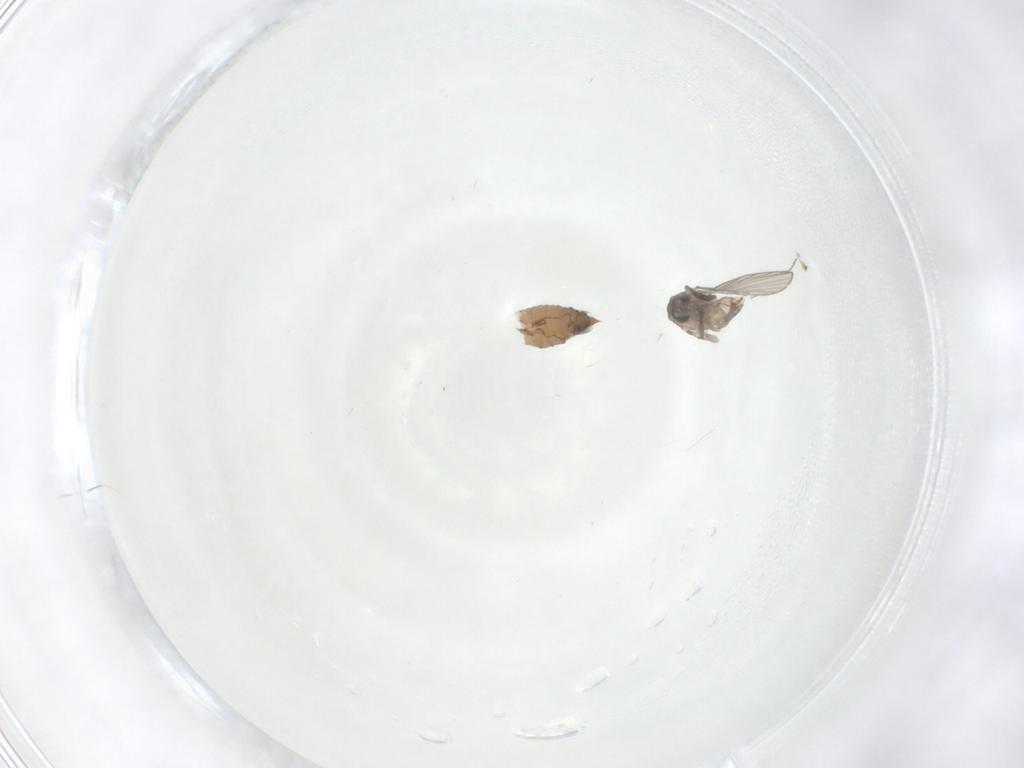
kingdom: Animalia
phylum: Arthropoda
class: Insecta
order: Diptera
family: Psychodidae
